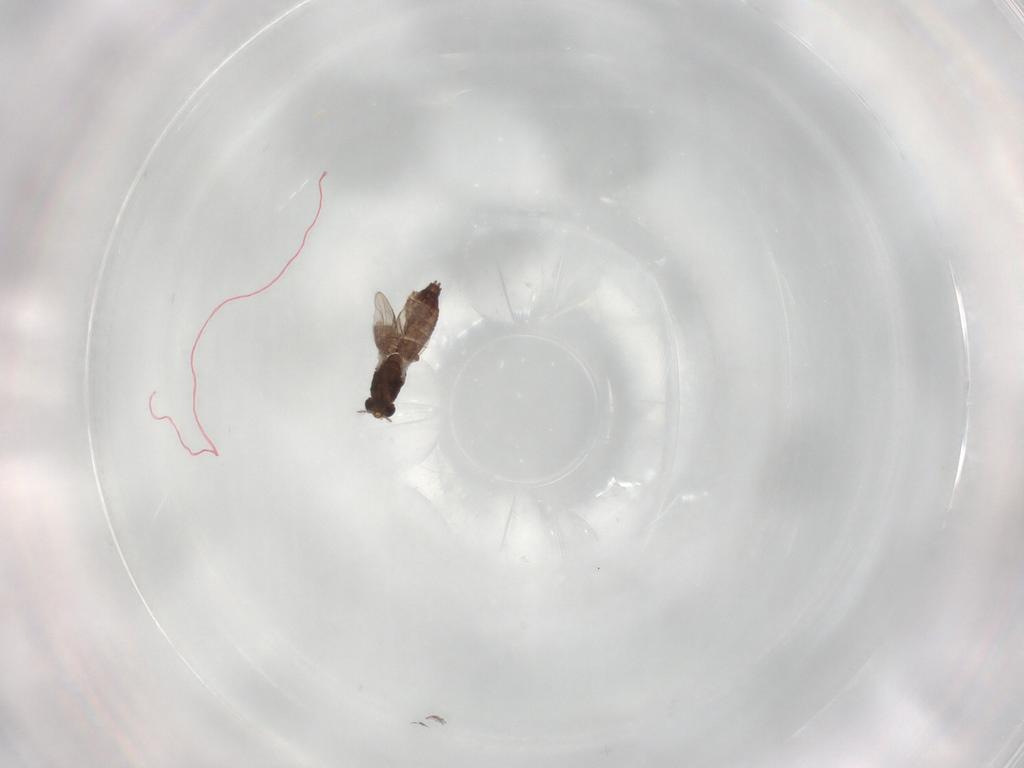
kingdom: Animalia
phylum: Arthropoda
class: Insecta
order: Diptera
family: Chironomidae
